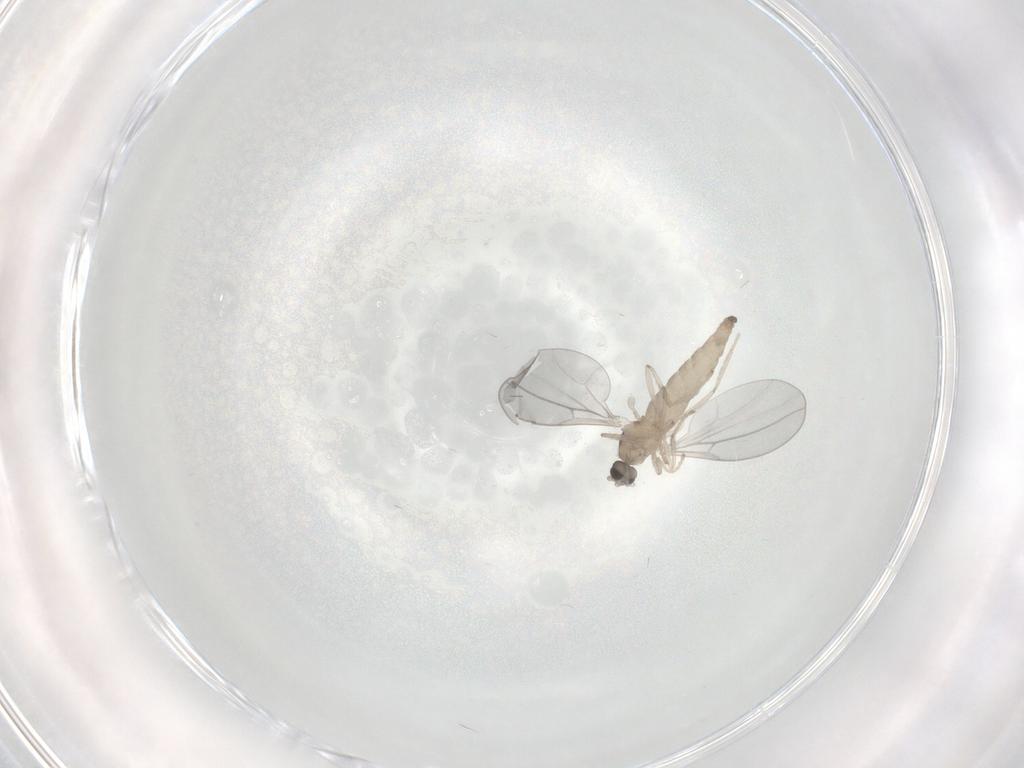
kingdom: Animalia
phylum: Arthropoda
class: Insecta
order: Diptera
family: Cecidomyiidae
